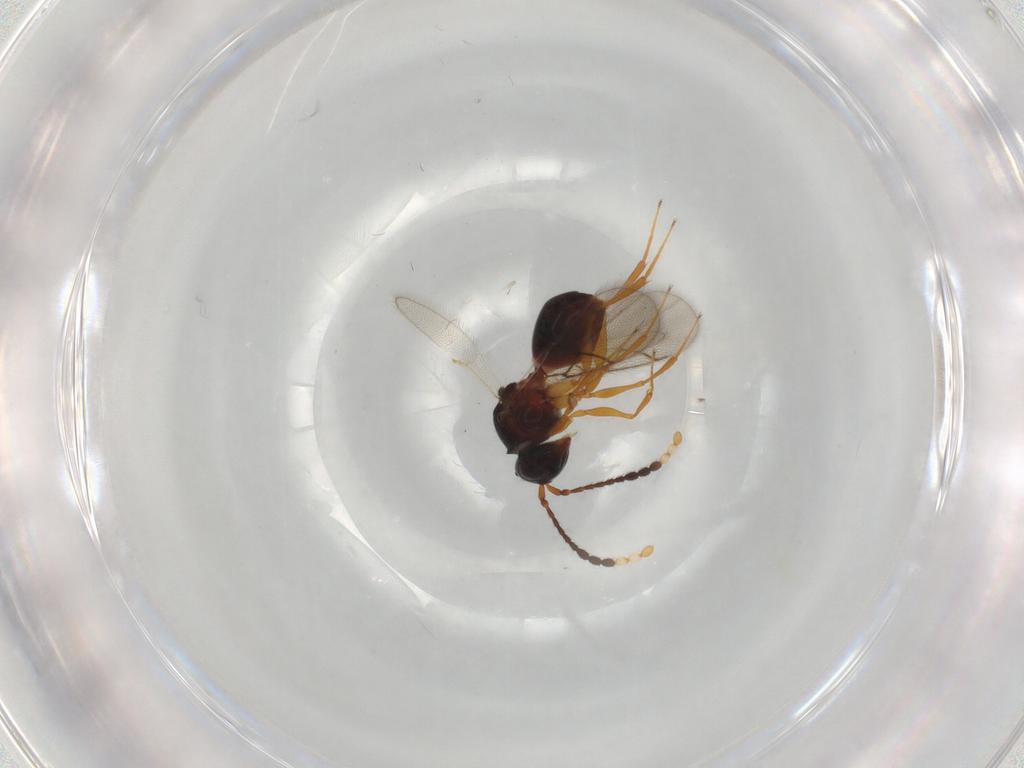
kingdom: Animalia
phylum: Arthropoda
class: Insecta
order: Hymenoptera
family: Figitidae
